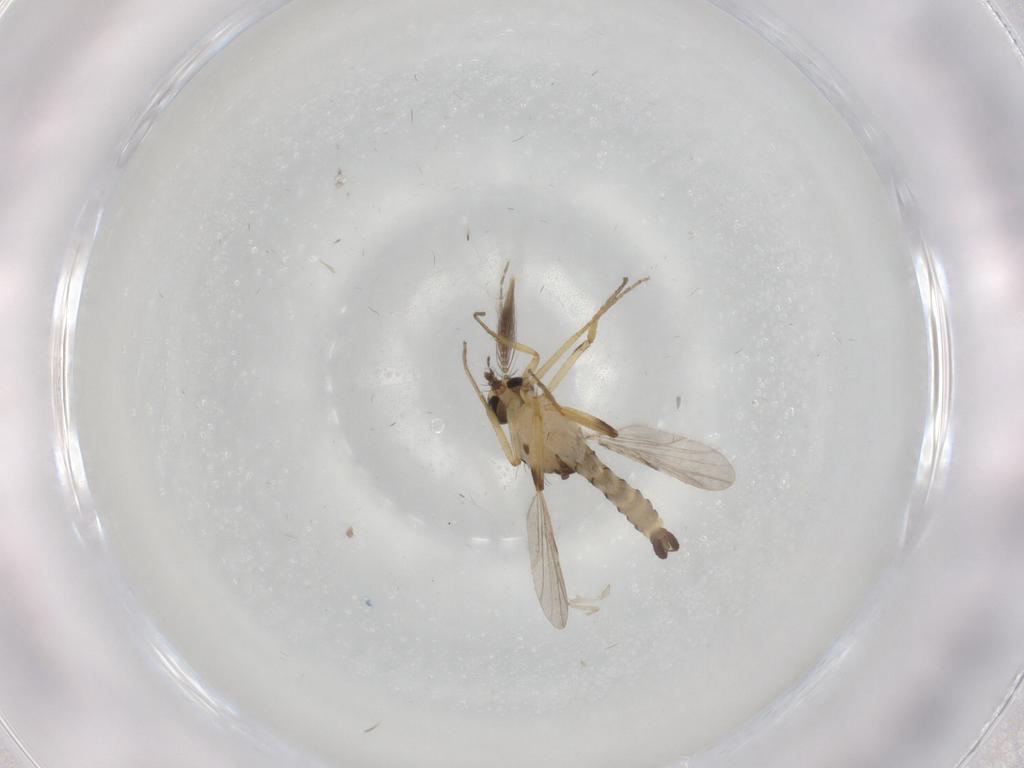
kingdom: Animalia
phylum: Arthropoda
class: Insecta
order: Diptera
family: Ceratopogonidae
